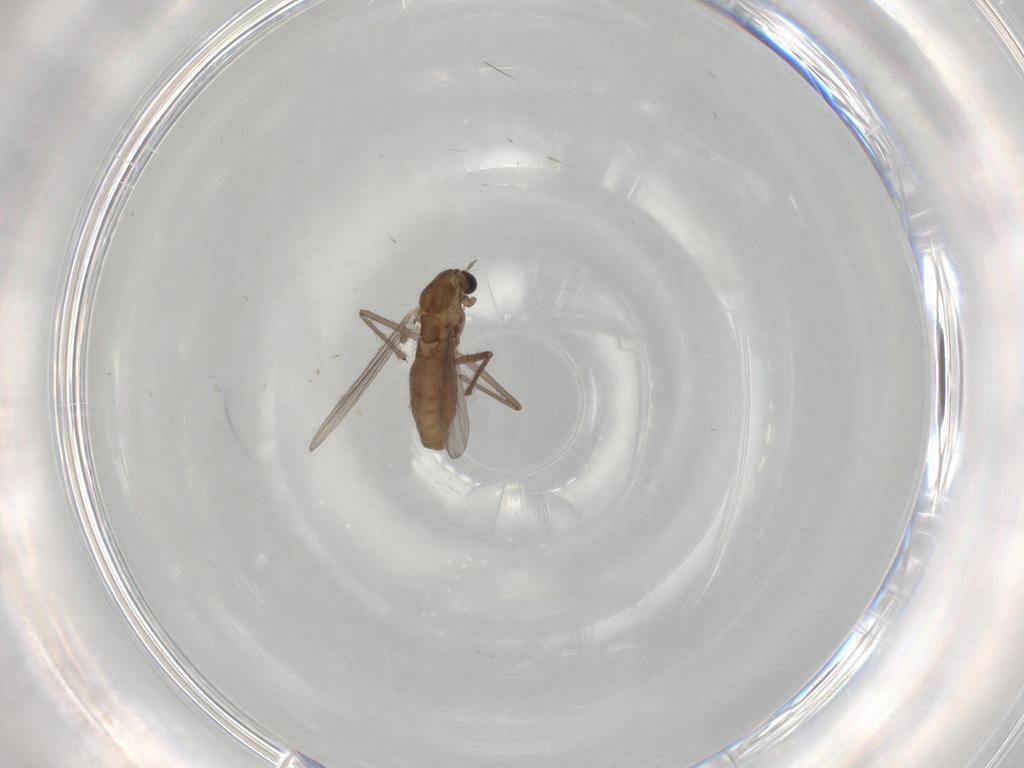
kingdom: Animalia
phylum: Arthropoda
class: Insecta
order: Diptera
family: Chironomidae
